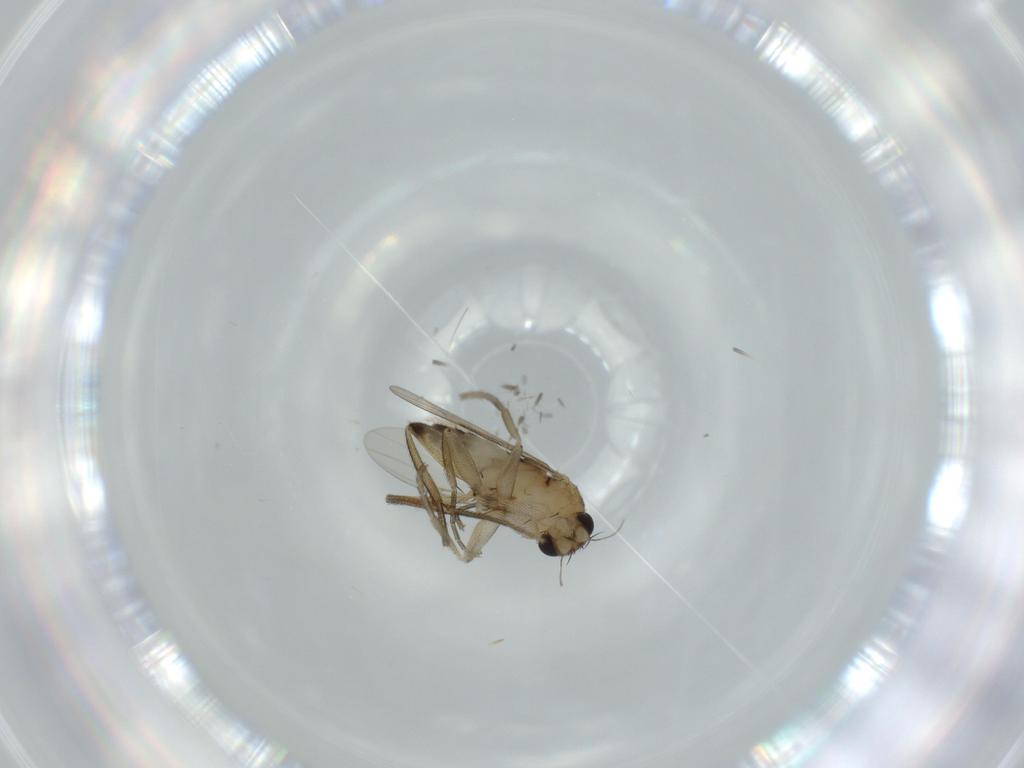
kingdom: Animalia
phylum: Arthropoda
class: Insecta
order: Diptera
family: Phoridae
